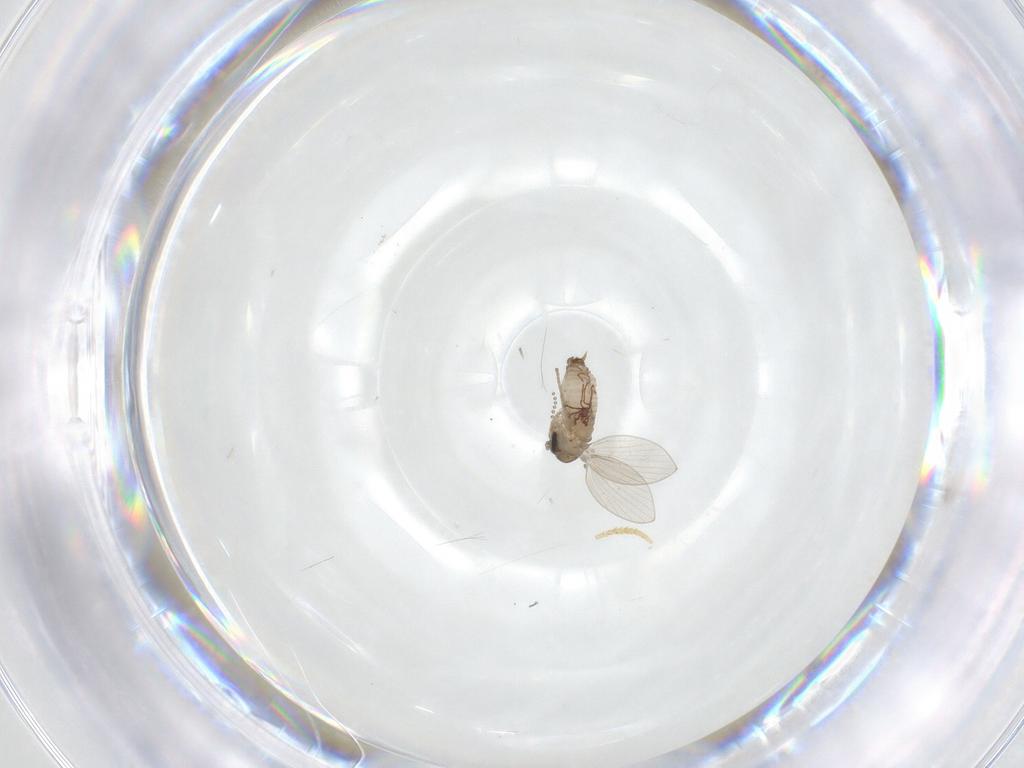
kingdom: Animalia
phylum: Arthropoda
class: Insecta
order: Diptera
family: Psychodidae
